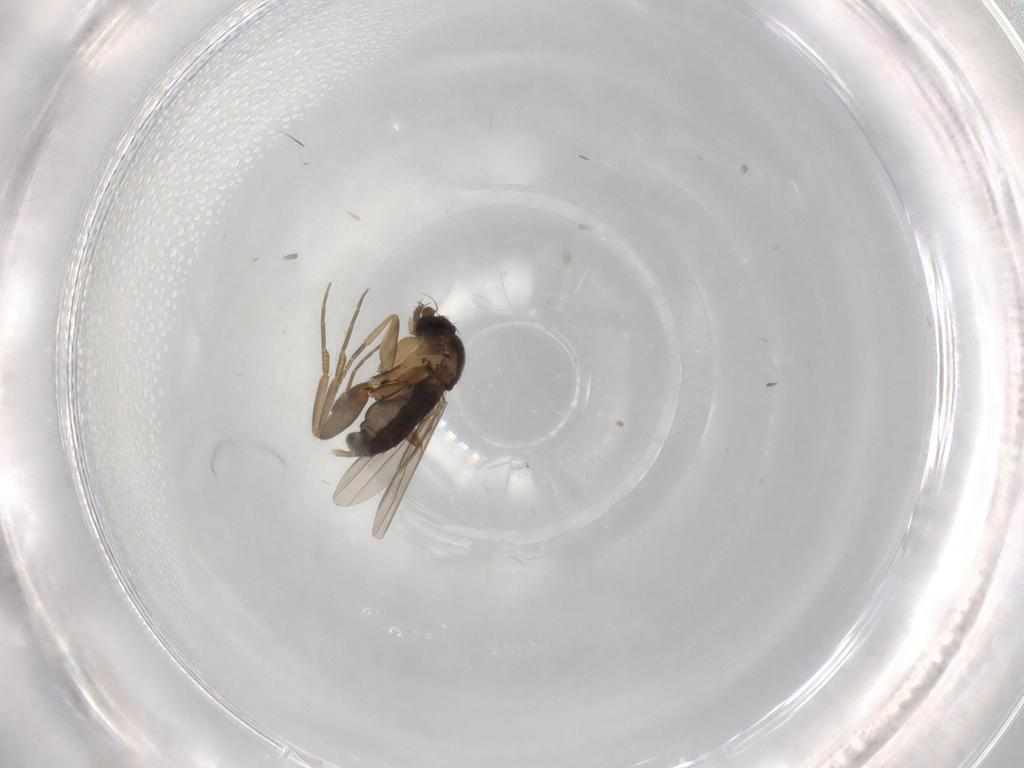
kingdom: Animalia
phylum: Arthropoda
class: Insecta
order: Diptera
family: Phoridae
